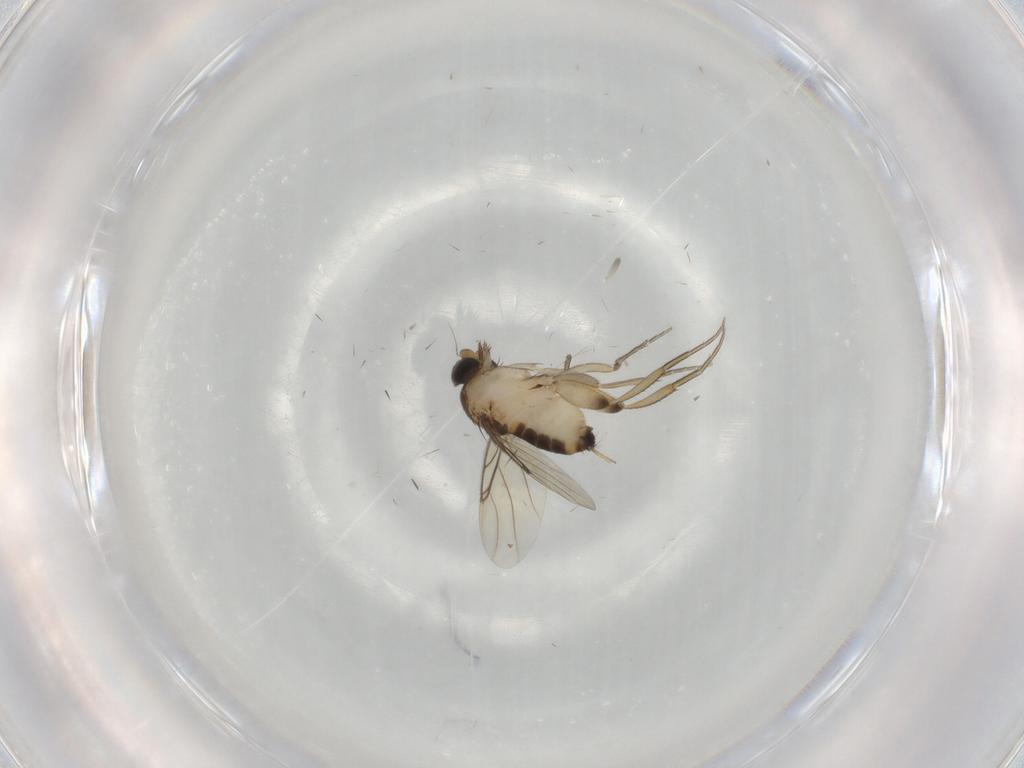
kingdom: Animalia
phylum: Arthropoda
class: Insecta
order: Diptera
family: Phoridae
